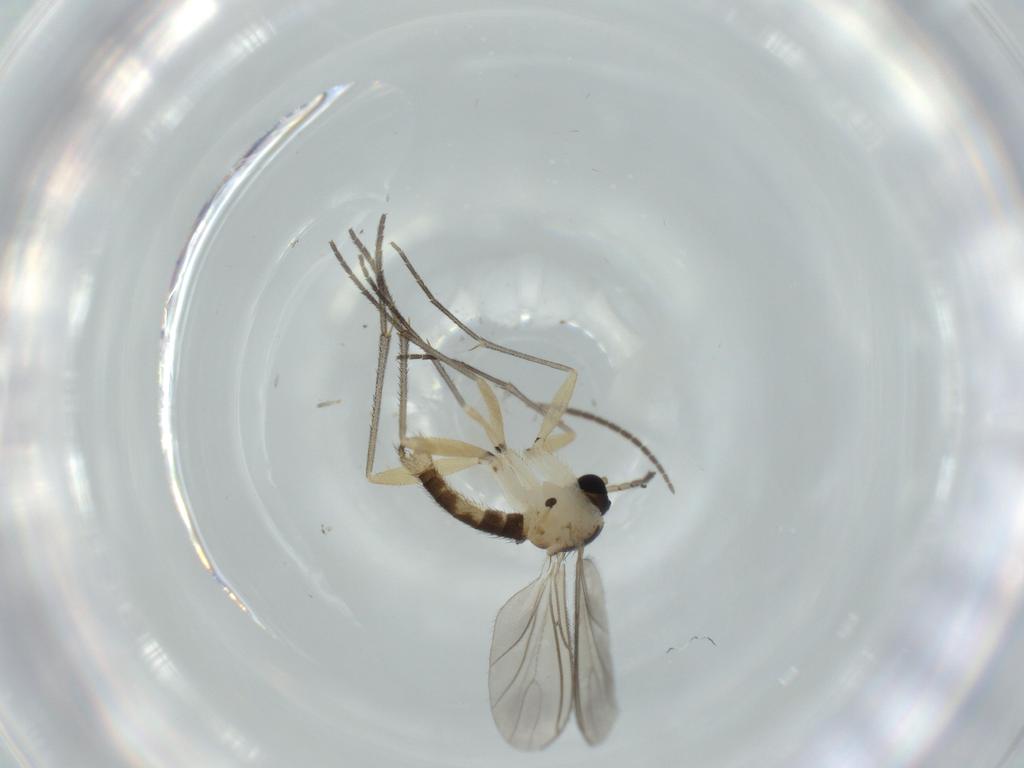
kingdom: Animalia
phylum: Arthropoda
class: Insecta
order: Diptera
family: Sciaridae
